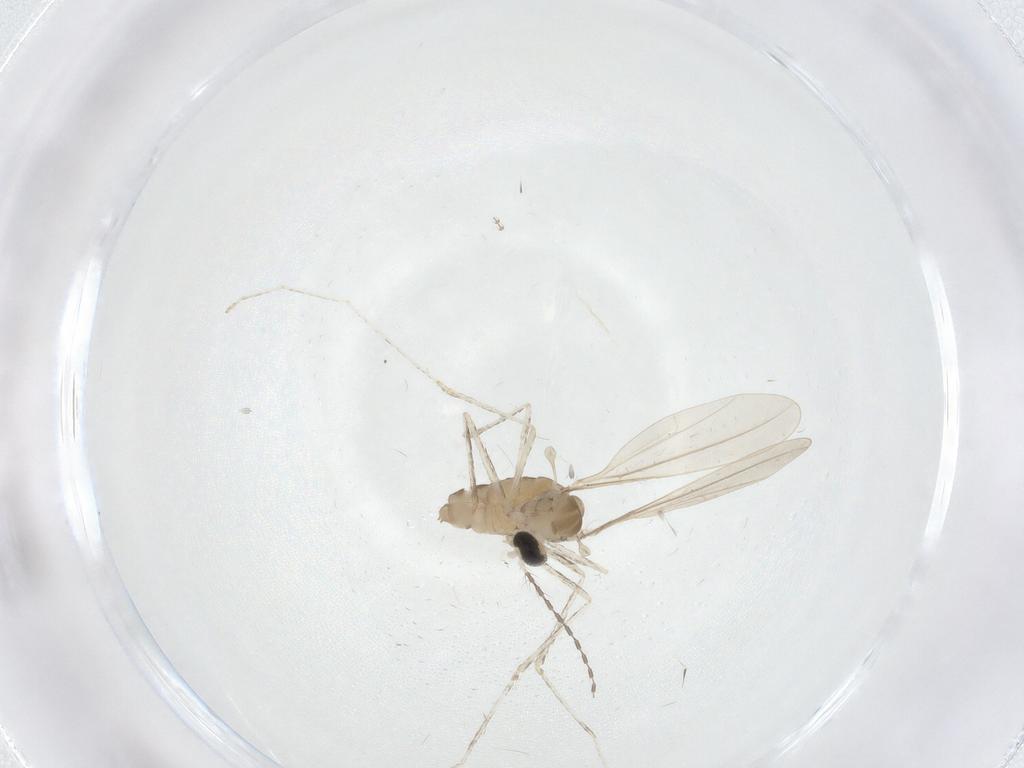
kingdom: Animalia
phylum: Arthropoda
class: Insecta
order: Diptera
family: Cecidomyiidae
